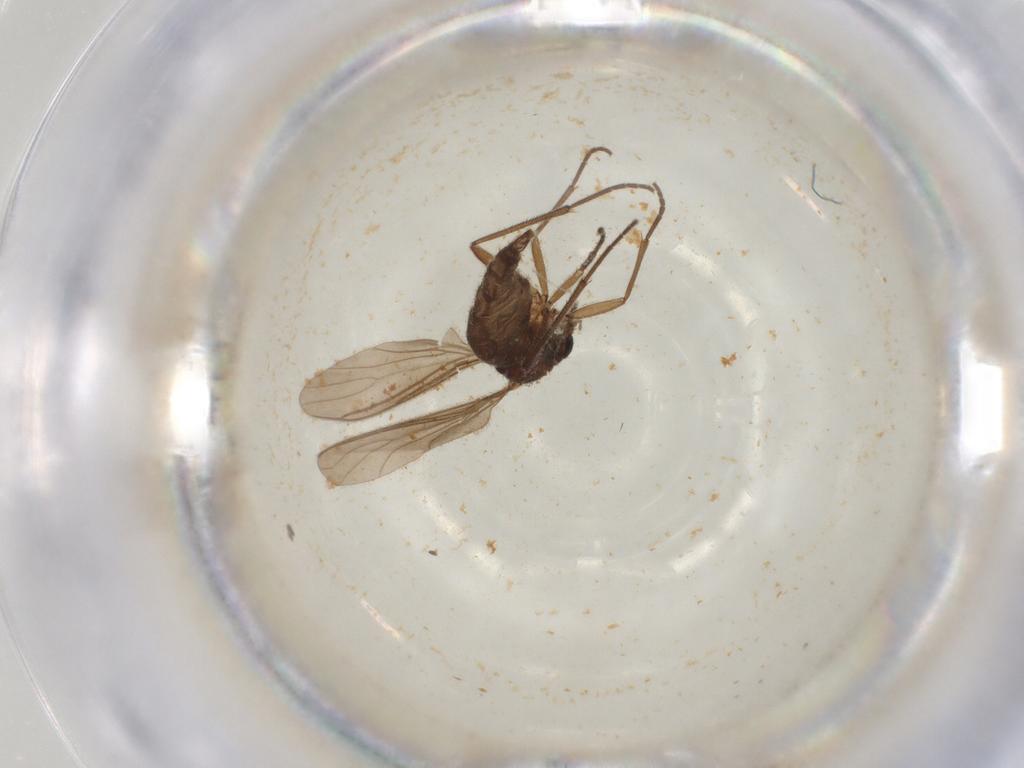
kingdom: Animalia
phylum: Arthropoda
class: Insecta
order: Diptera
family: Sciaridae
